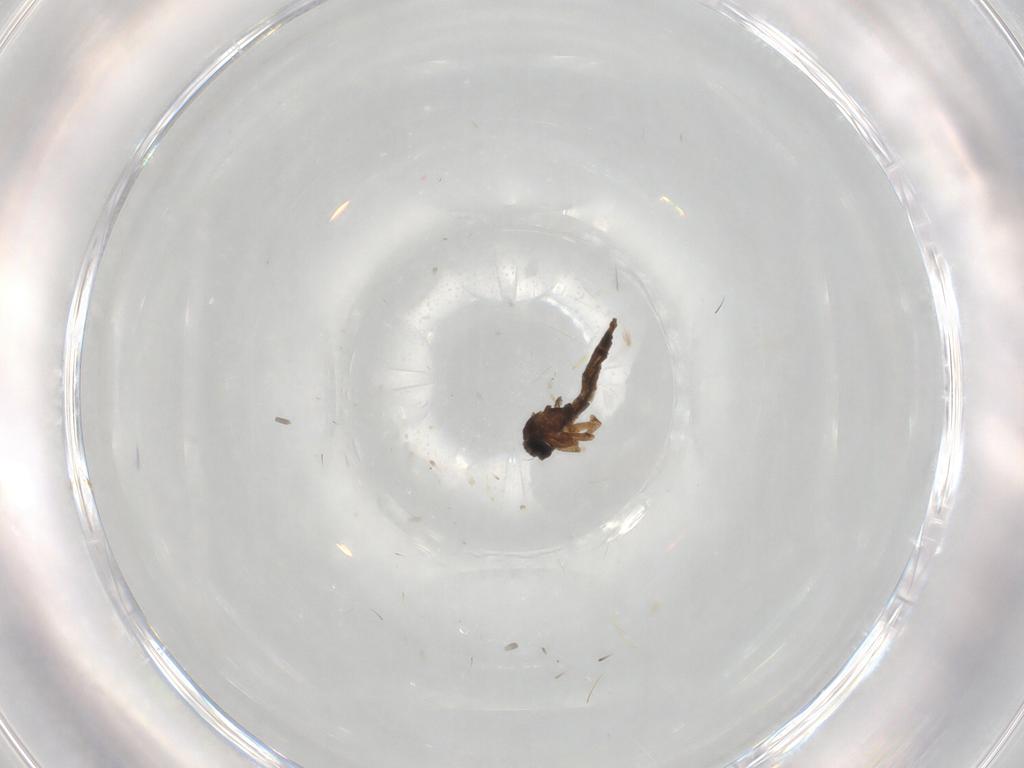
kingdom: Animalia
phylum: Arthropoda
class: Insecta
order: Diptera
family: Sciaridae
